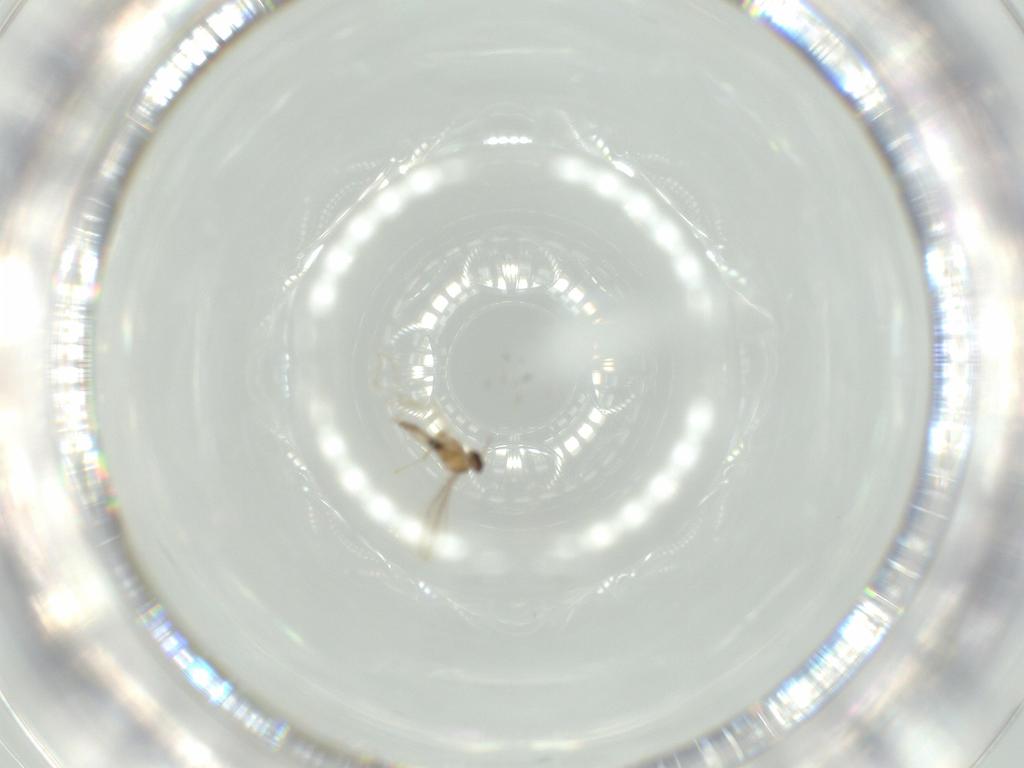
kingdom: Animalia
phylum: Arthropoda
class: Insecta
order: Diptera
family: Cecidomyiidae
